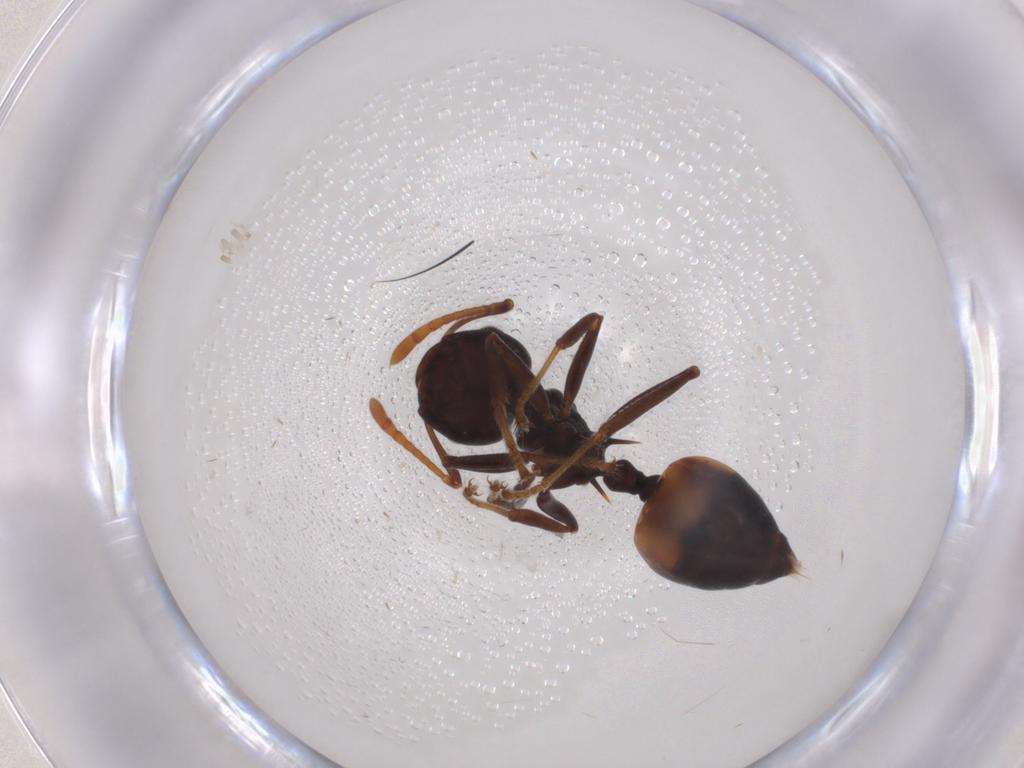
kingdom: Animalia
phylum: Arthropoda
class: Insecta
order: Hymenoptera
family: Formicidae
